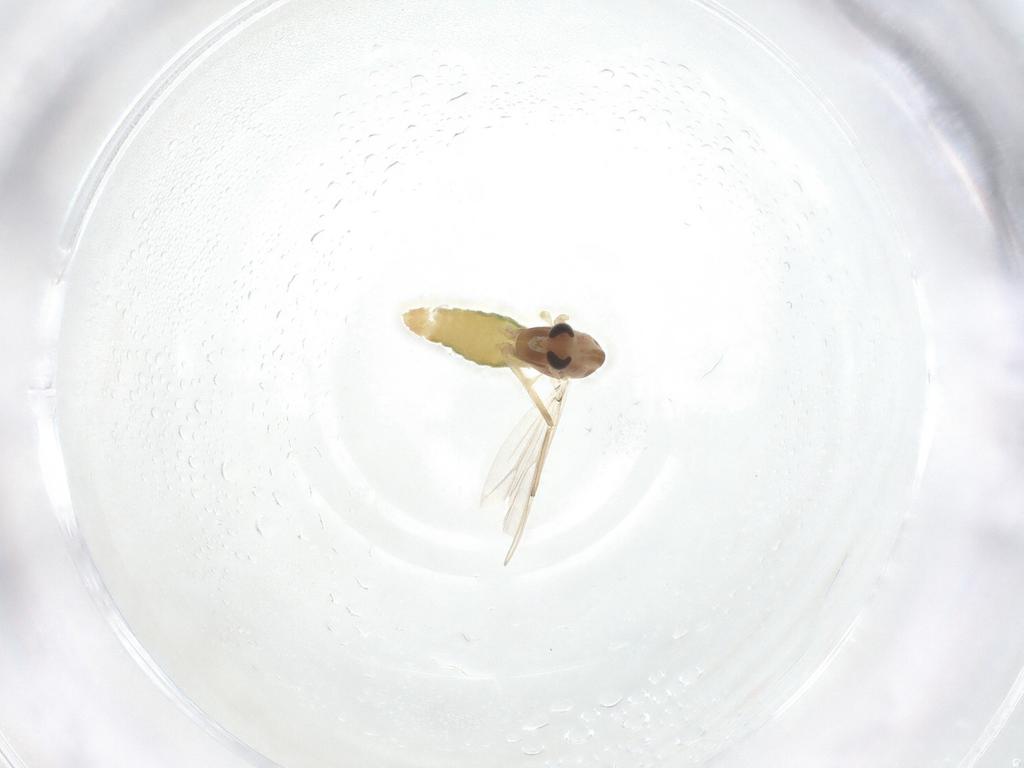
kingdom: Animalia
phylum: Arthropoda
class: Insecta
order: Diptera
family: Chironomidae
